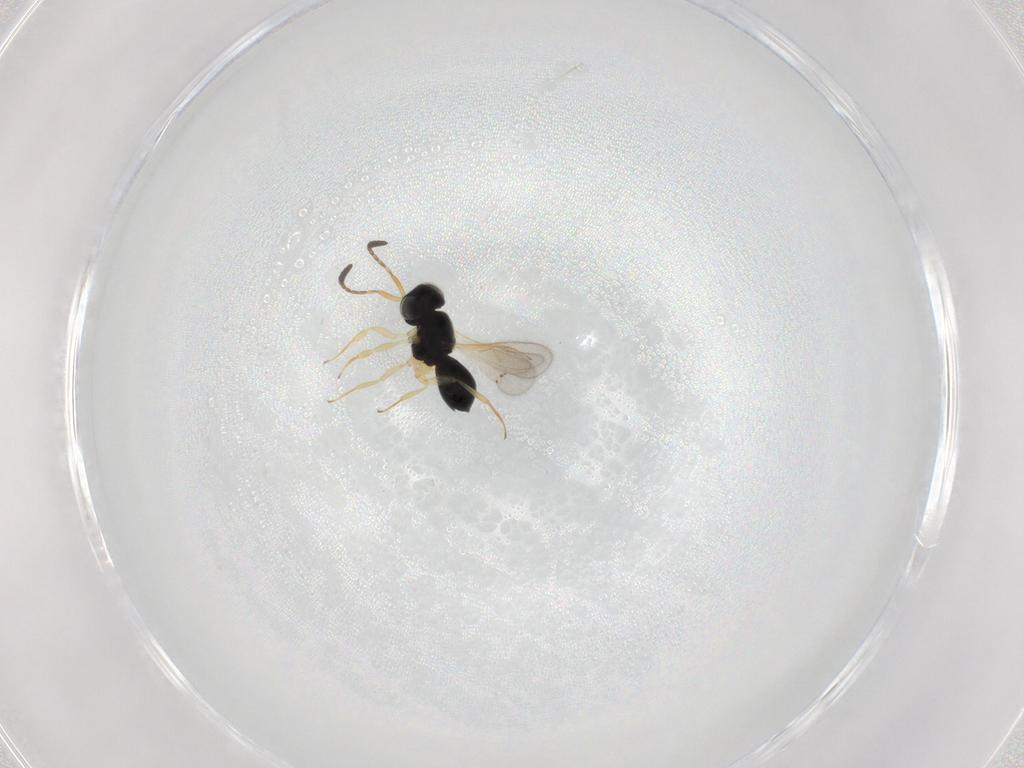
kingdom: Animalia
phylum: Arthropoda
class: Insecta
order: Hymenoptera
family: Scelionidae
